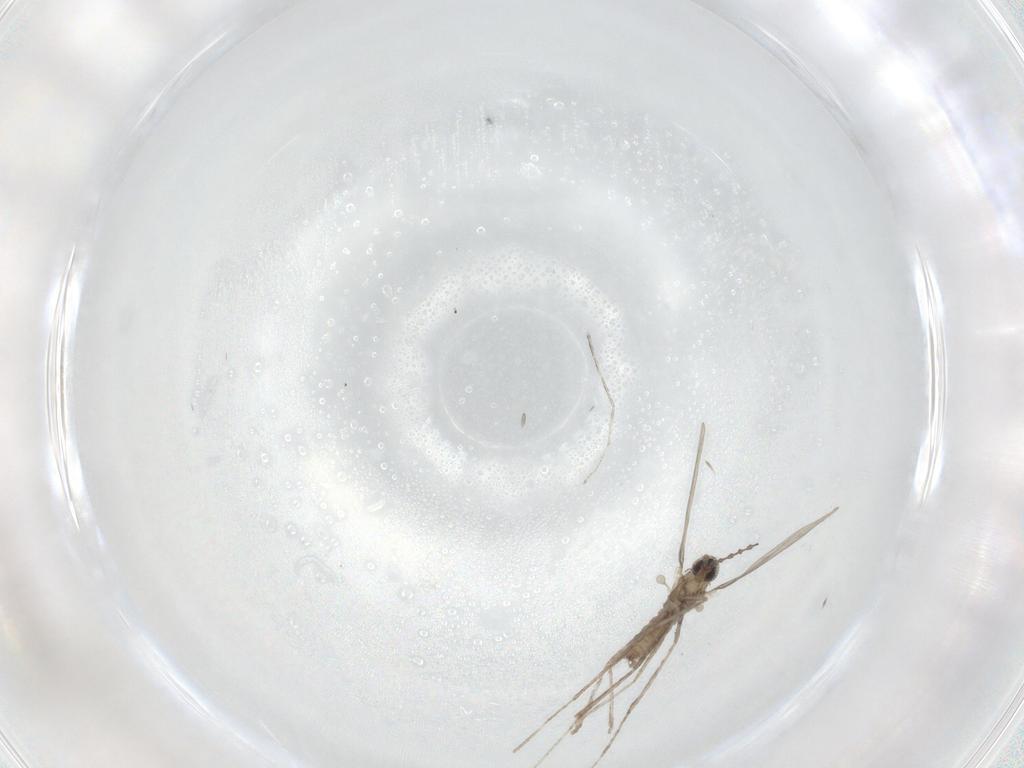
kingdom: Animalia
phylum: Arthropoda
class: Insecta
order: Diptera
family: Cecidomyiidae
